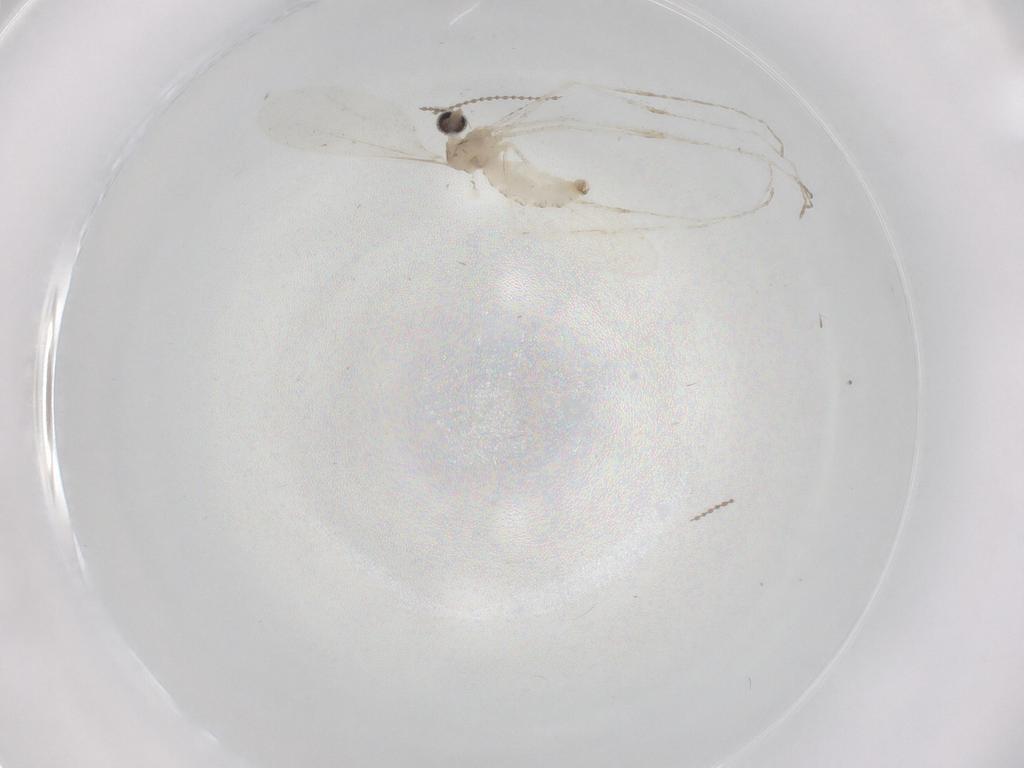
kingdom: Animalia
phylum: Arthropoda
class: Insecta
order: Diptera
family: Cecidomyiidae
